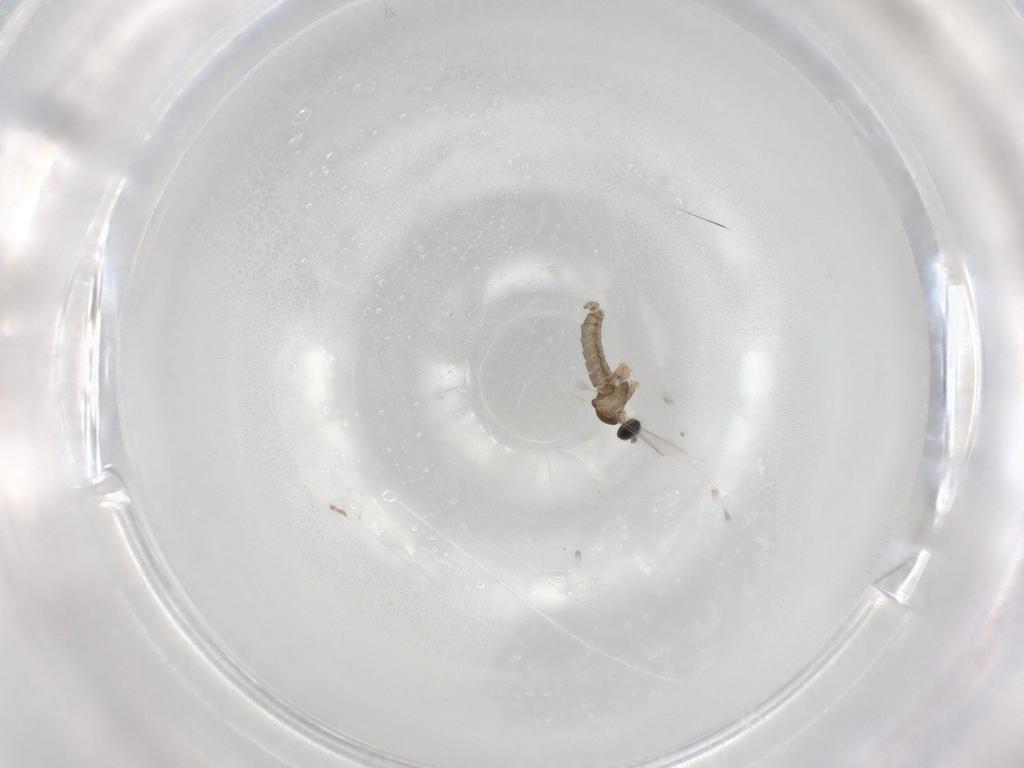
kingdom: Animalia
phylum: Arthropoda
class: Insecta
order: Diptera
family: Cecidomyiidae
